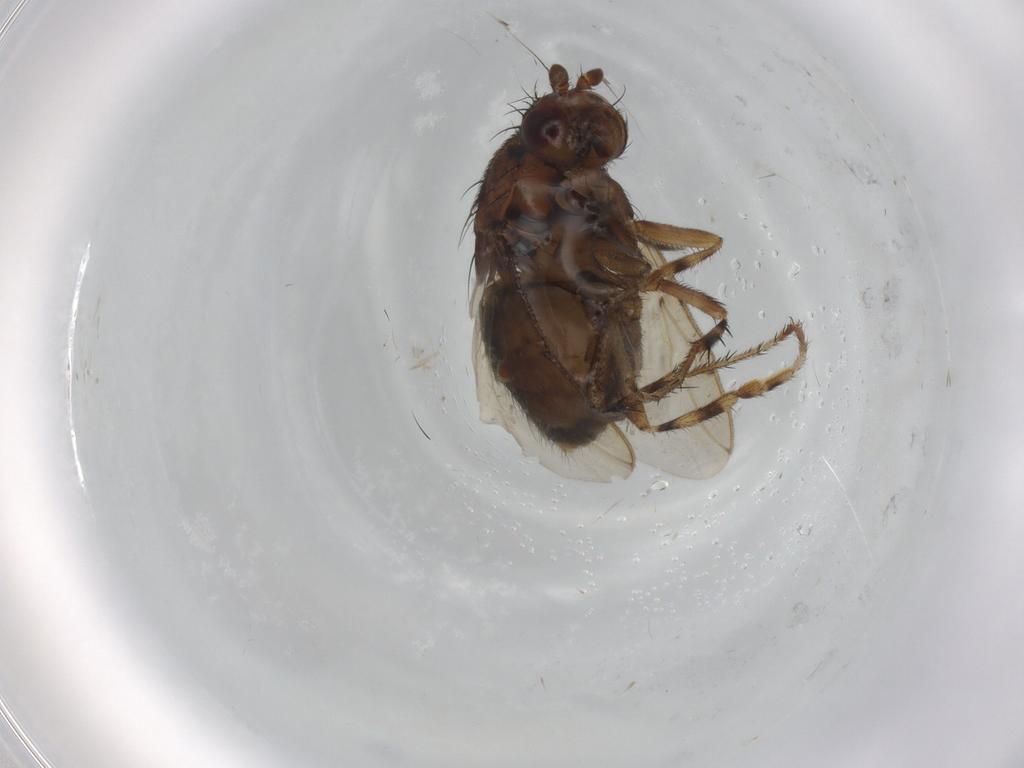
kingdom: Animalia
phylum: Arthropoda
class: Insecta
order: Diptera
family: Sphaeroceridae
